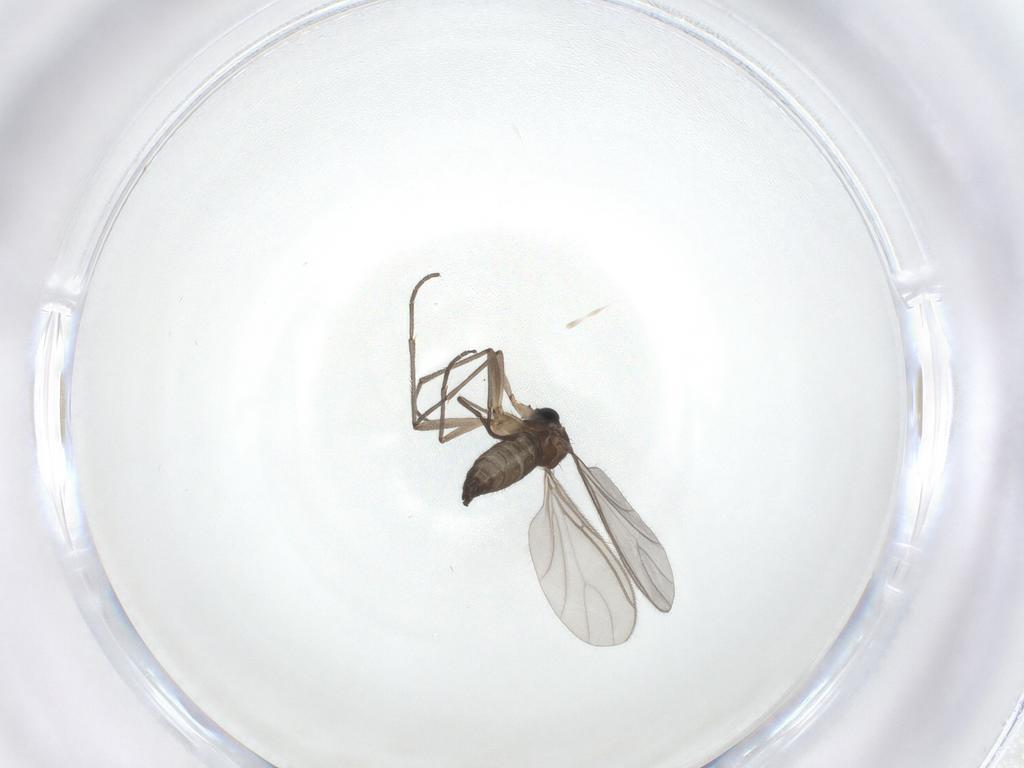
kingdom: Animalia
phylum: Arthropoda
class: Insecta
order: Diptera
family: Sciaridae
